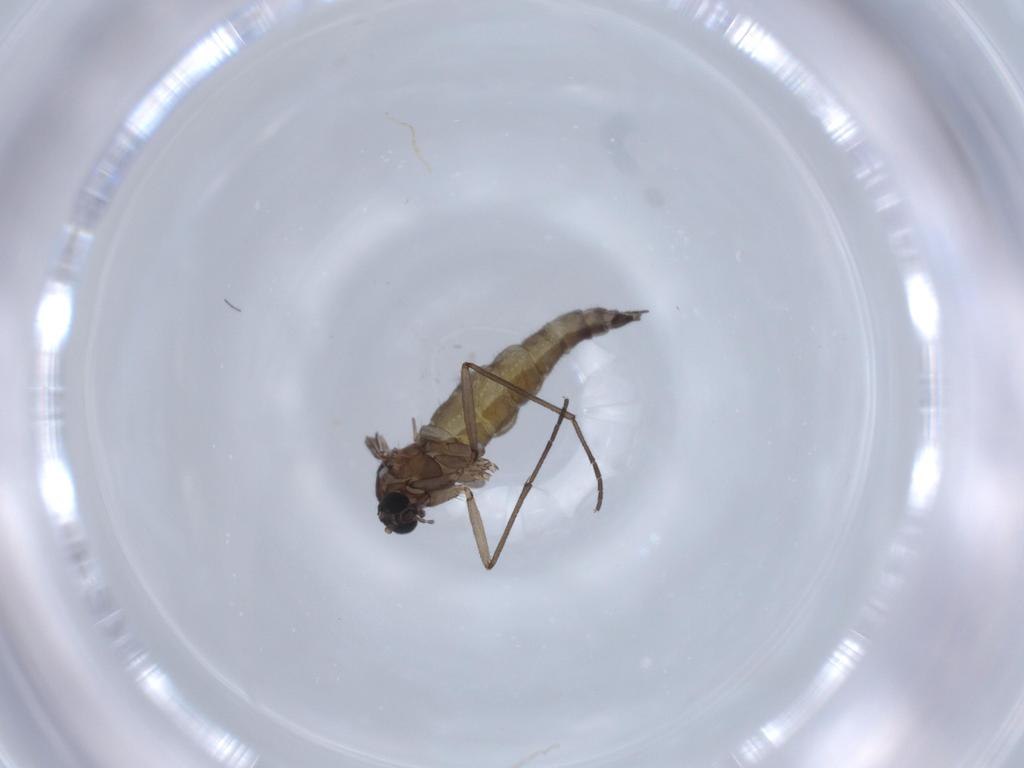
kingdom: Animalia
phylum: Arthropoda
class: Insecta
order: Diptera
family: Sciaridae
